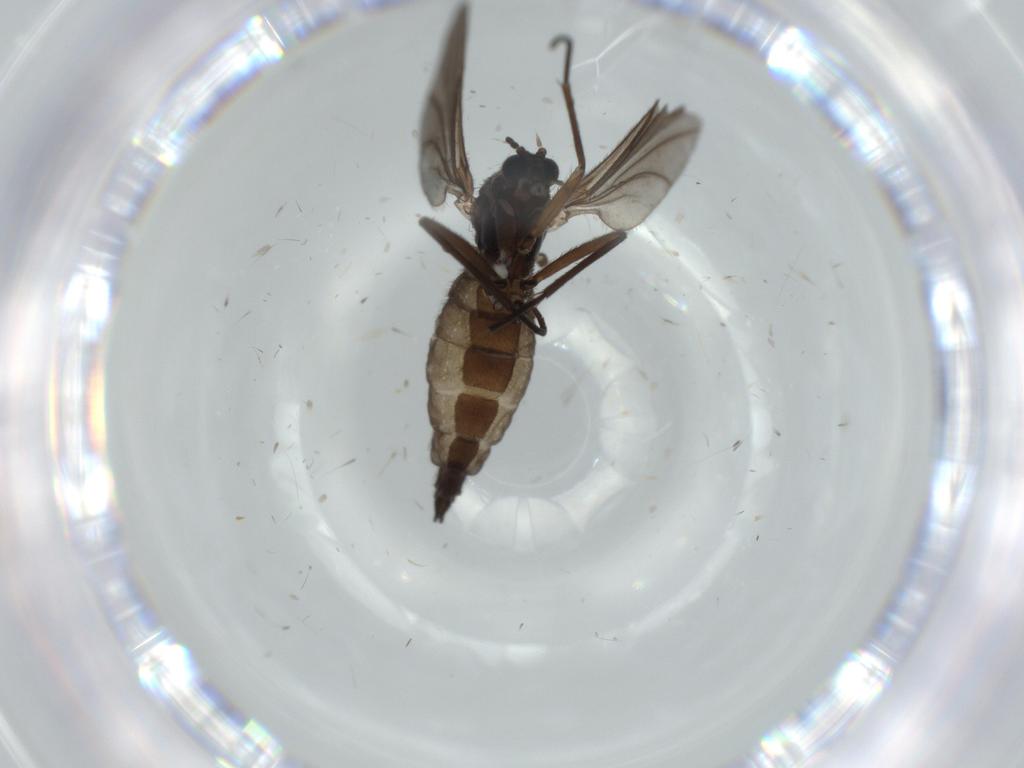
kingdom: Animalia
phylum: Arthropoda
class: Insecta
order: Diptera
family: Sciaridae
